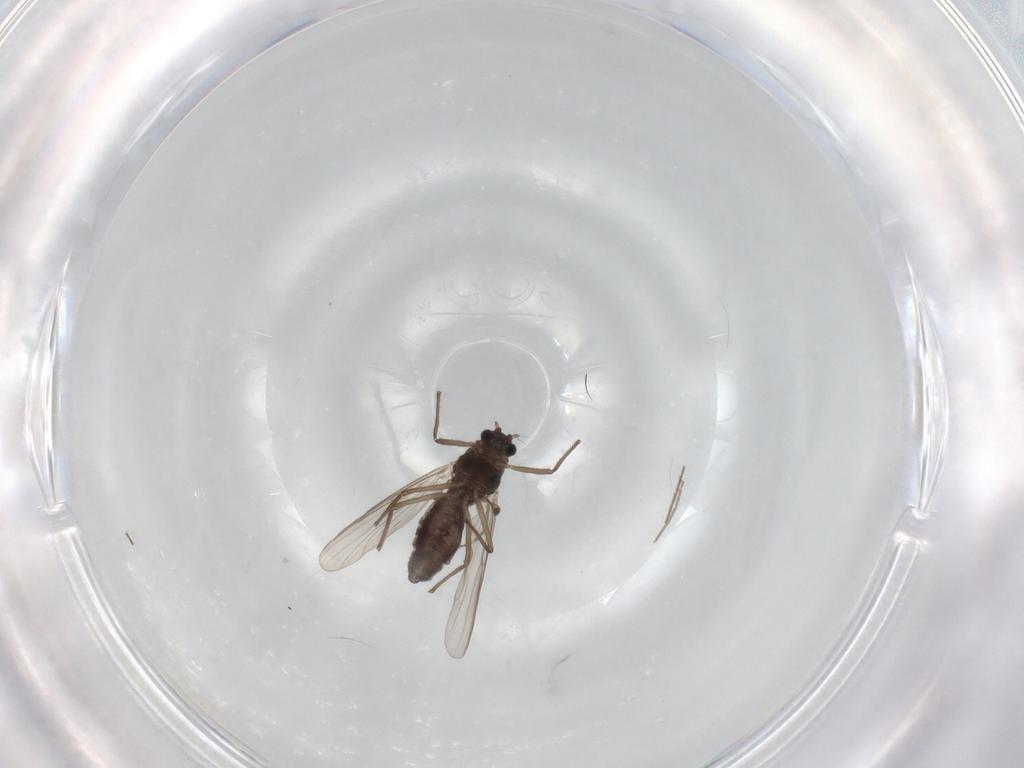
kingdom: Animalia
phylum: Arthropoda
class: Insecta
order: Diptera
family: Chironomidae
